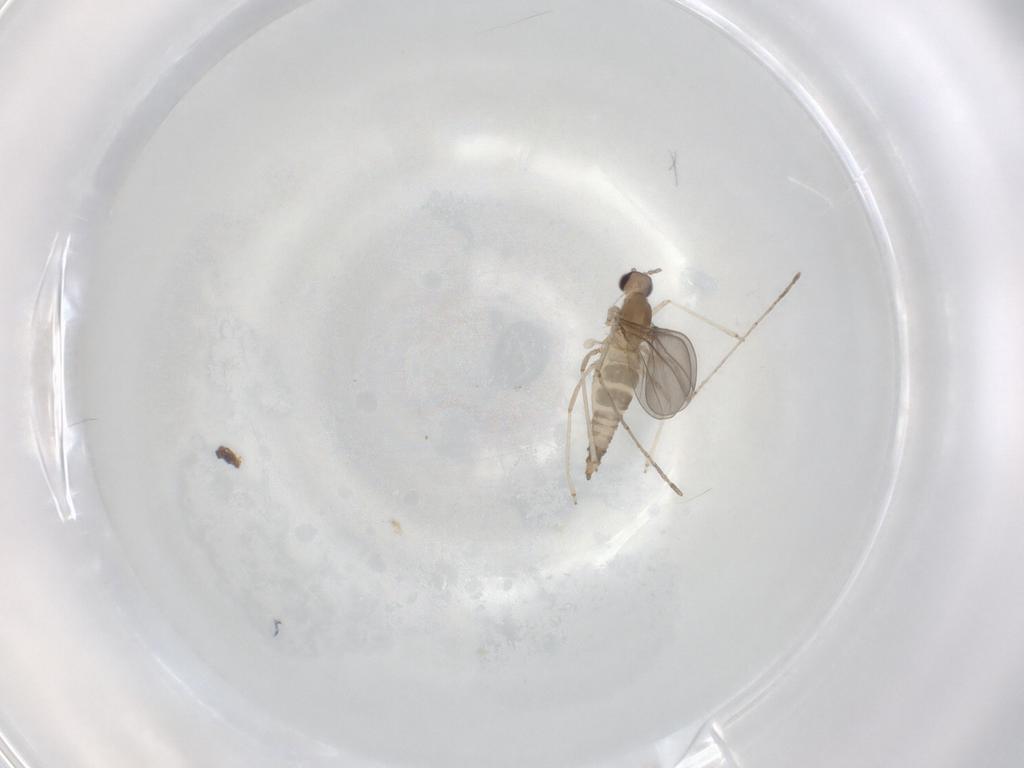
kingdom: Animalia
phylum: Arthropoda
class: Insecta
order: Diptera
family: Cecidomyiidae
